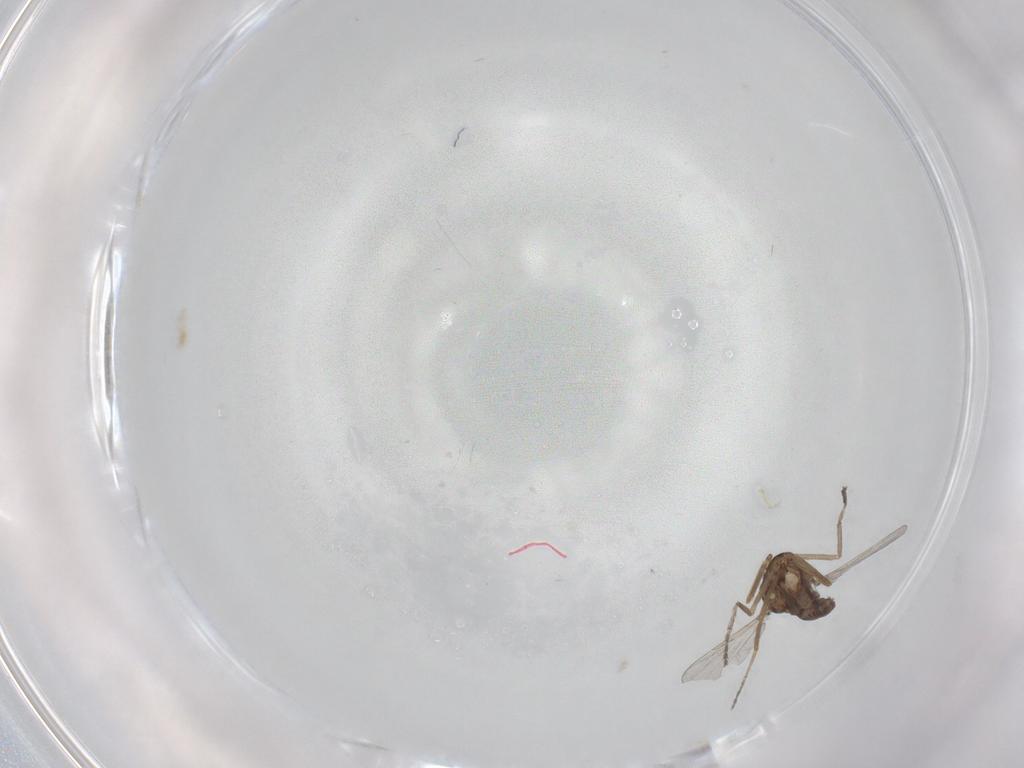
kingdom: Animalia
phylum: Arthropoda
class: Insecta
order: Diptera
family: Ceratopogonidae
